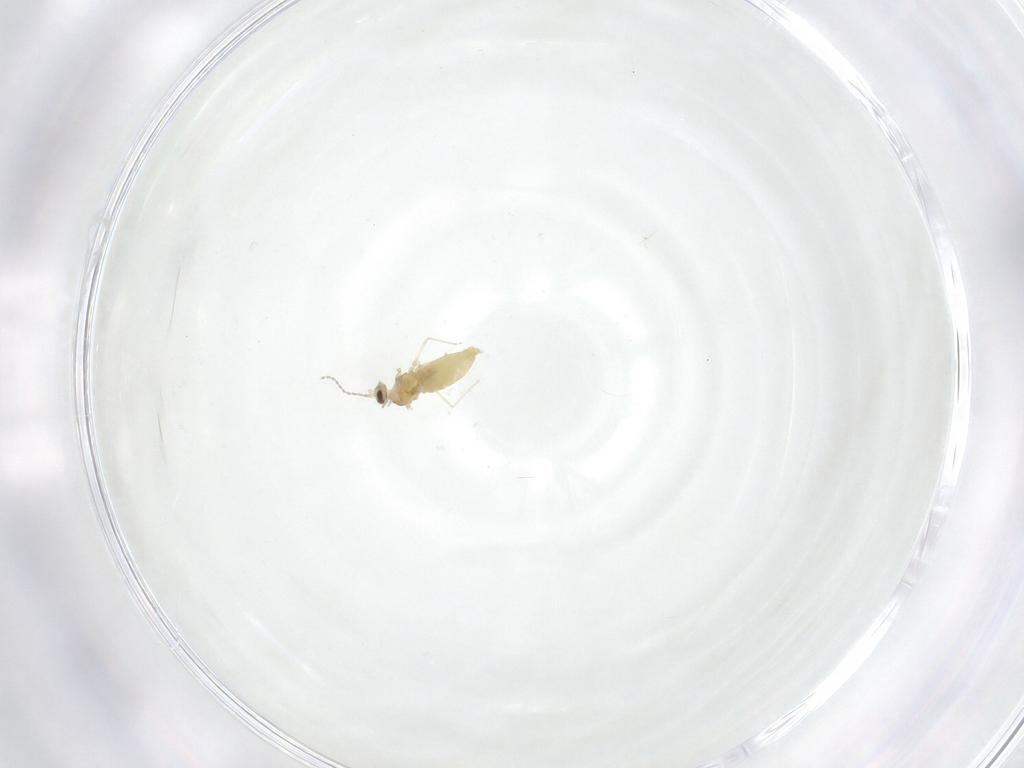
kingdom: Animalia
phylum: Arthropoda
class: Insecta
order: Diptera
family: Cecidomyiidae
